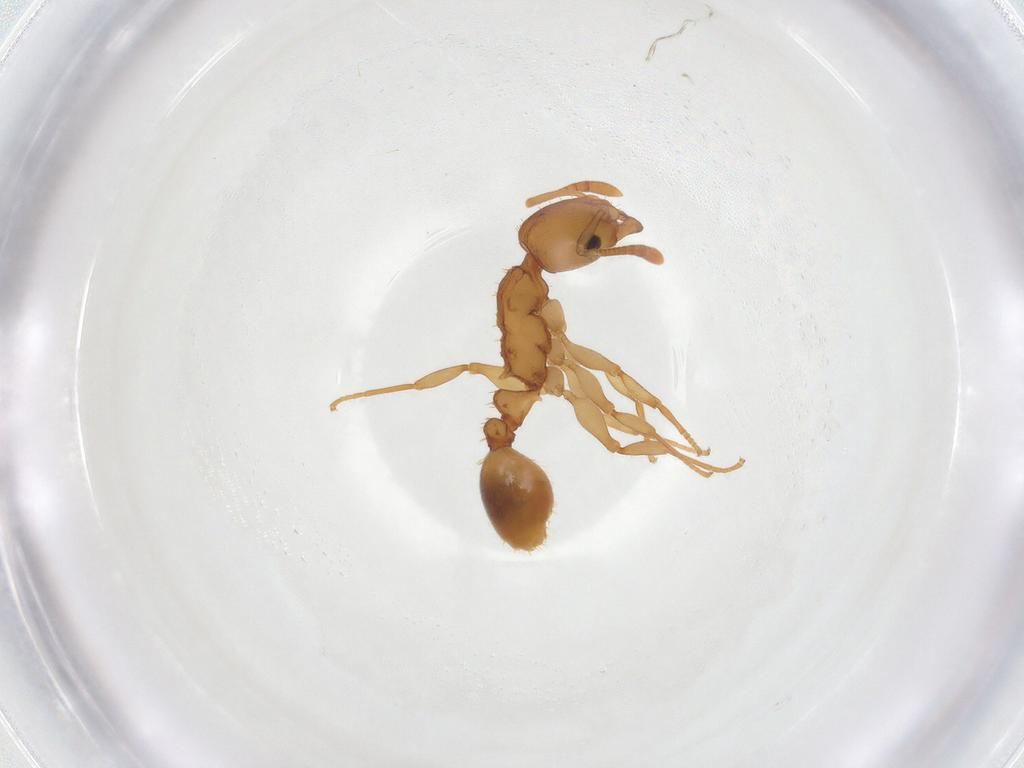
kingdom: Animalia
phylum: Arthropoda
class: Insecta
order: Hymenoptera
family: Formicidae
